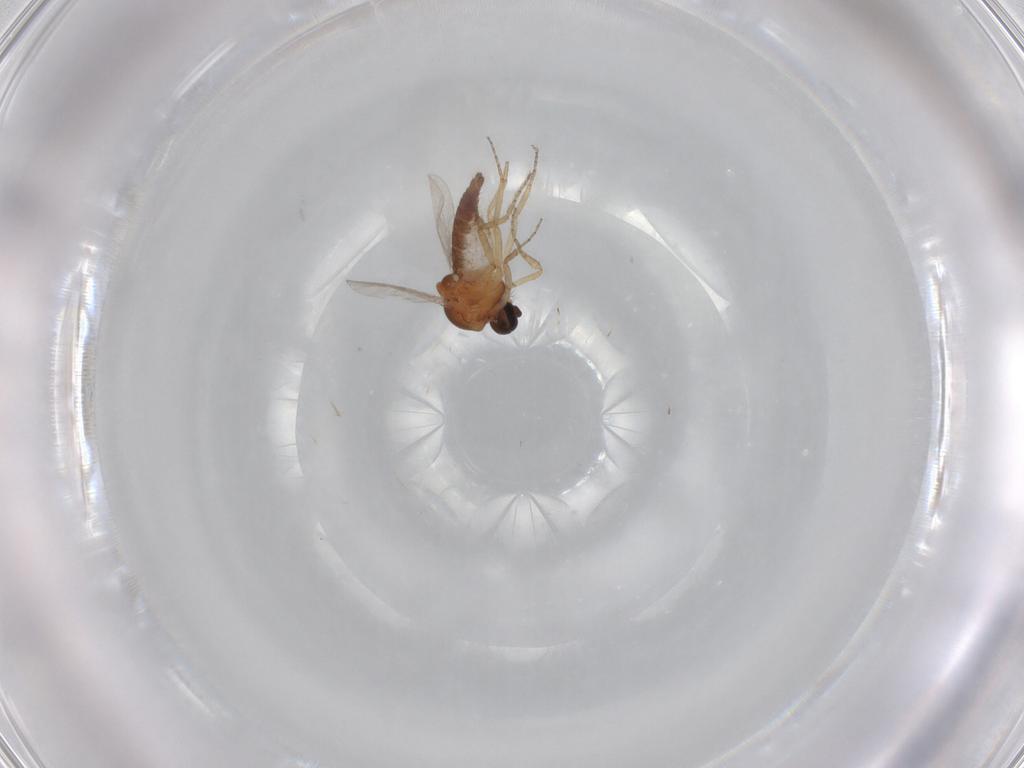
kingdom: Animalia
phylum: Arthropoda
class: Insecta
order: Diptera
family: Ceratopogonidae
